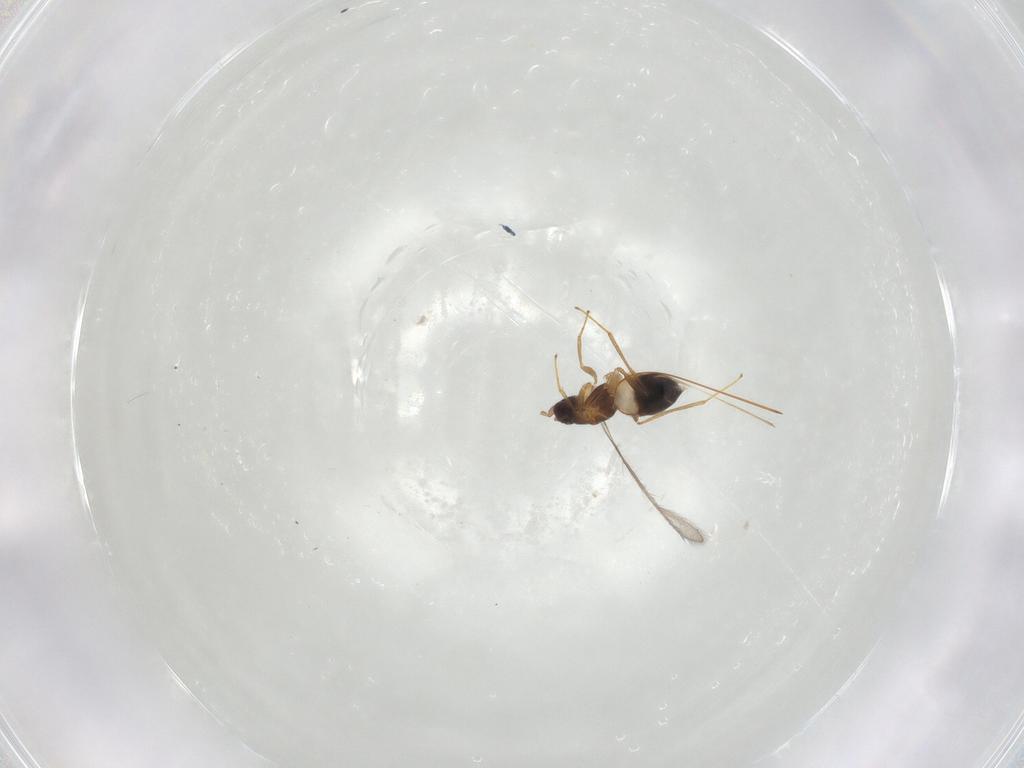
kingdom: Animalia
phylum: Arthropoda
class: Insecta
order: Hymenoptera
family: Mymaridae
